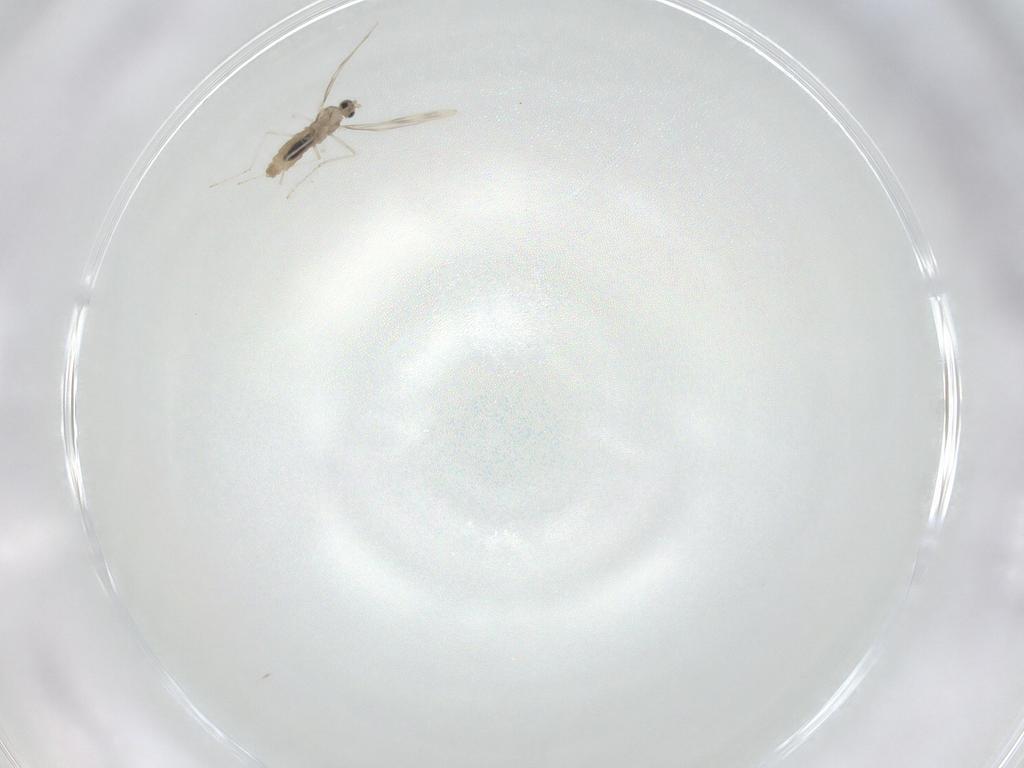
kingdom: Animalia
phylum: Arthropoda
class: Insecta
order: Diptera
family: Cecidomyiidae
